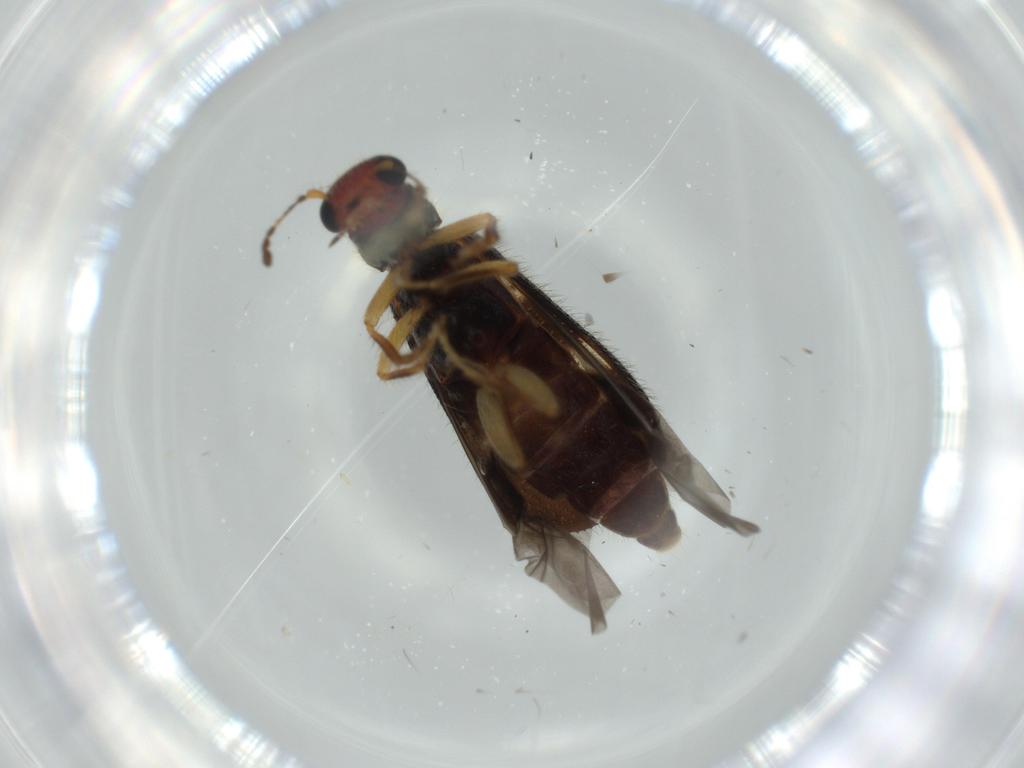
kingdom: Animalia
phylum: Arthropoda
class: Insecta
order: Coleoptera
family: Cleridae
